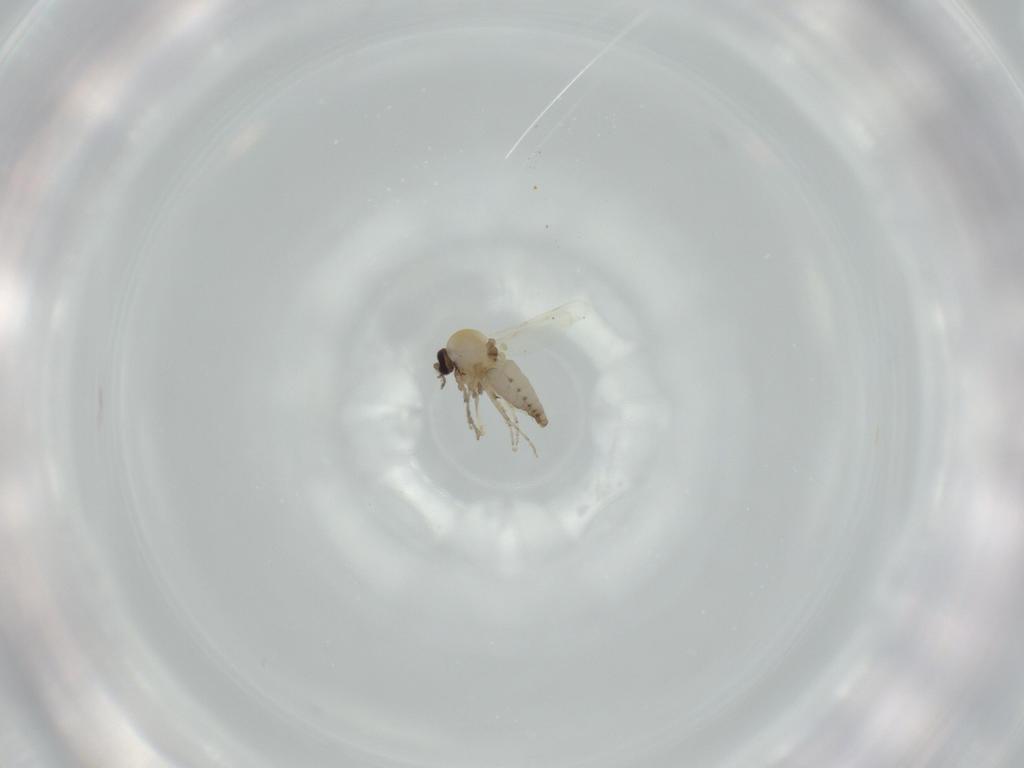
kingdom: Animalia
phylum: Arthropoda
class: Insecta
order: Diptera
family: Ceratopogonidae
